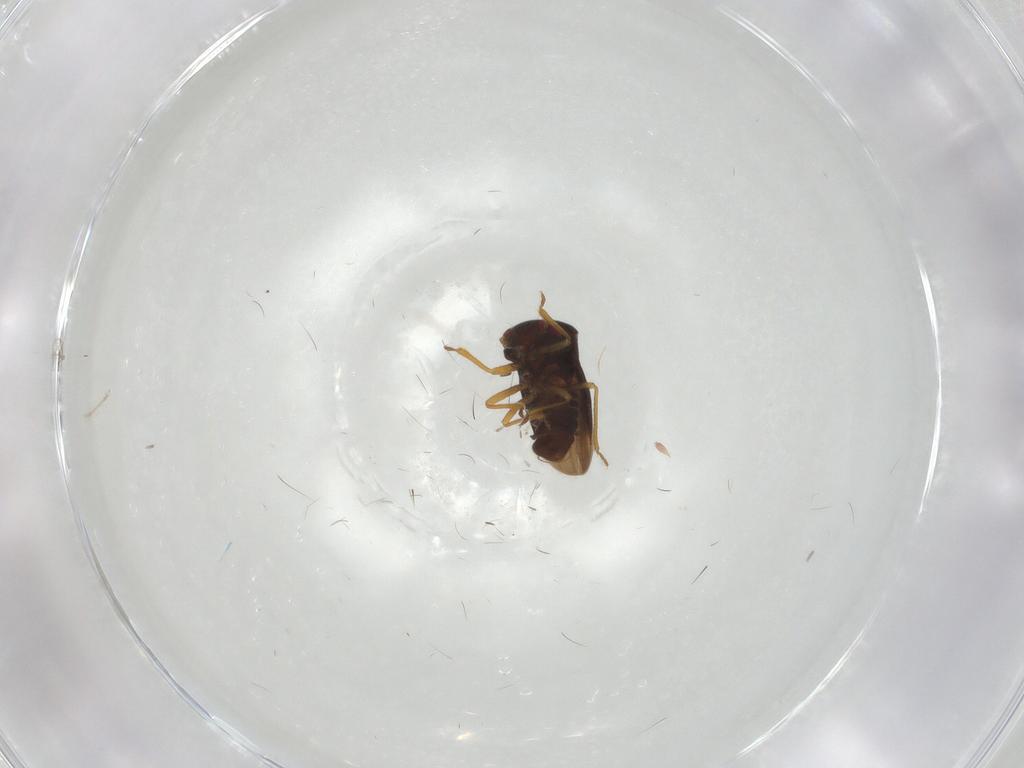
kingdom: Animalia
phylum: Arthropoda
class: Insecta
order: Hemiptera
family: Schizopteridae
